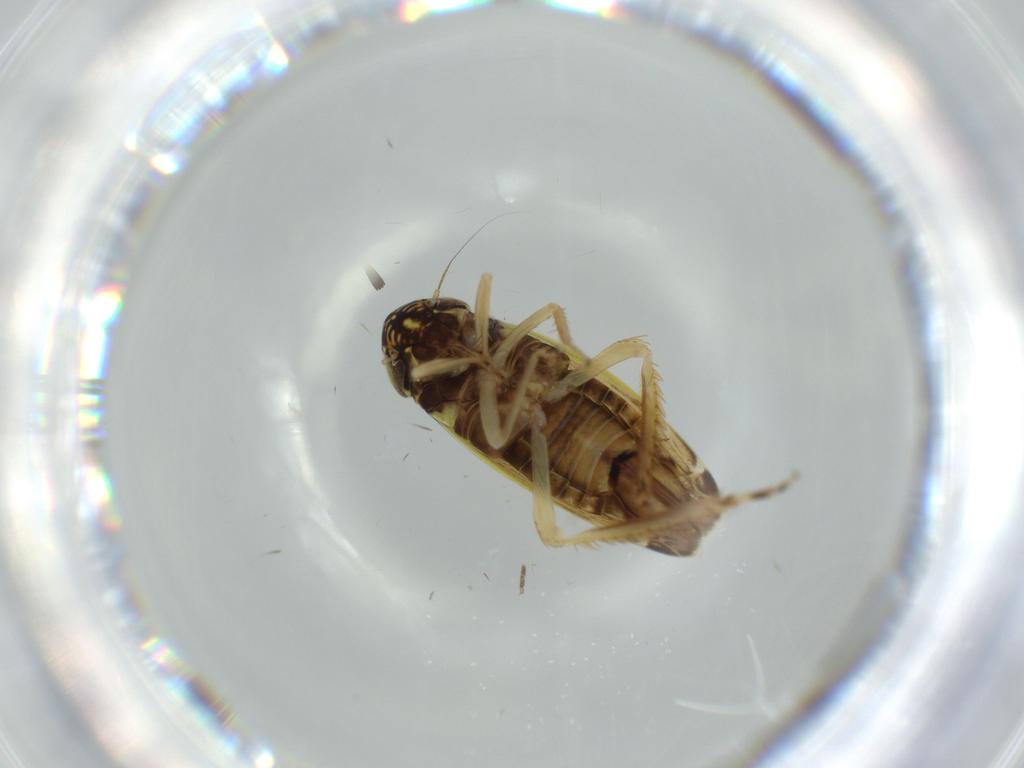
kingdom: Animalia
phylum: Arthropoda
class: Insecta
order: Hemiptera
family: Cicadellidae
